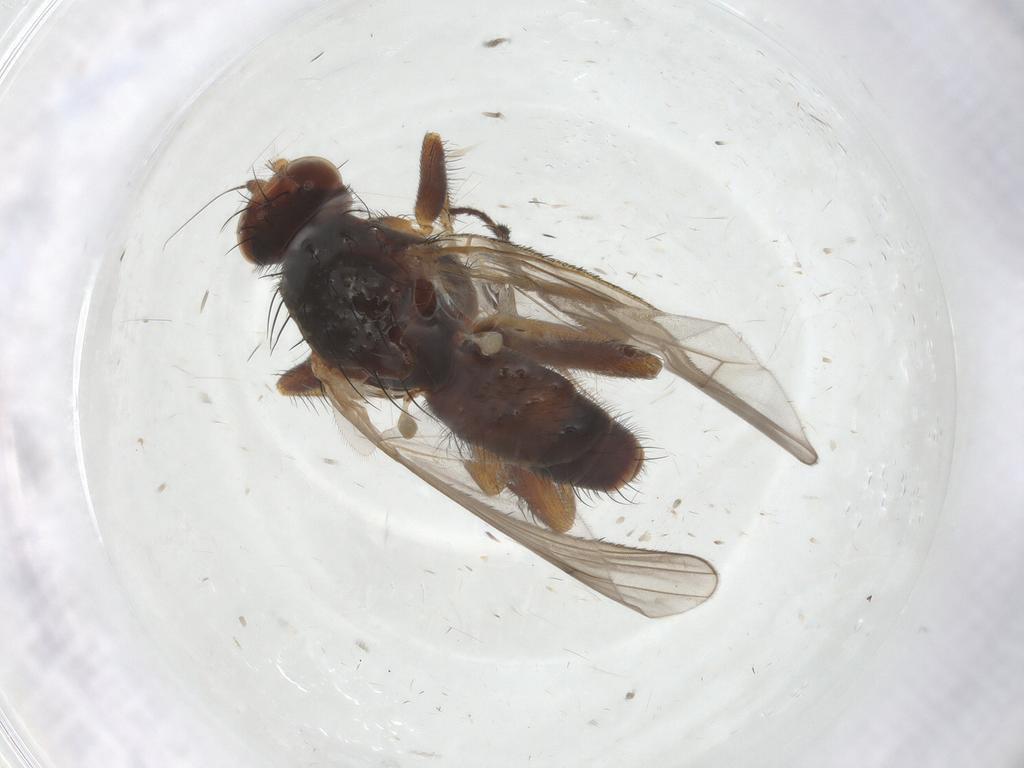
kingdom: Animalia
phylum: Arthropoda
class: Insecta
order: Diptera
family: Heleomyzidae
